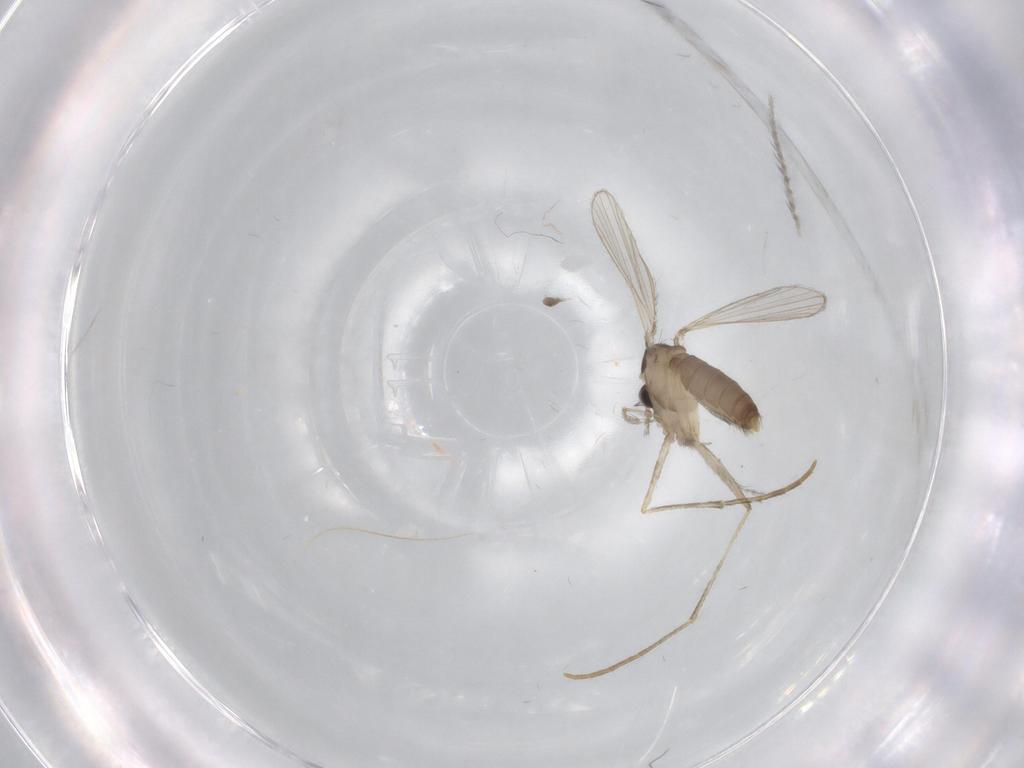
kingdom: Animalia
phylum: Arthropoda
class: Insecta
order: Diptera
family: Psychodidae
